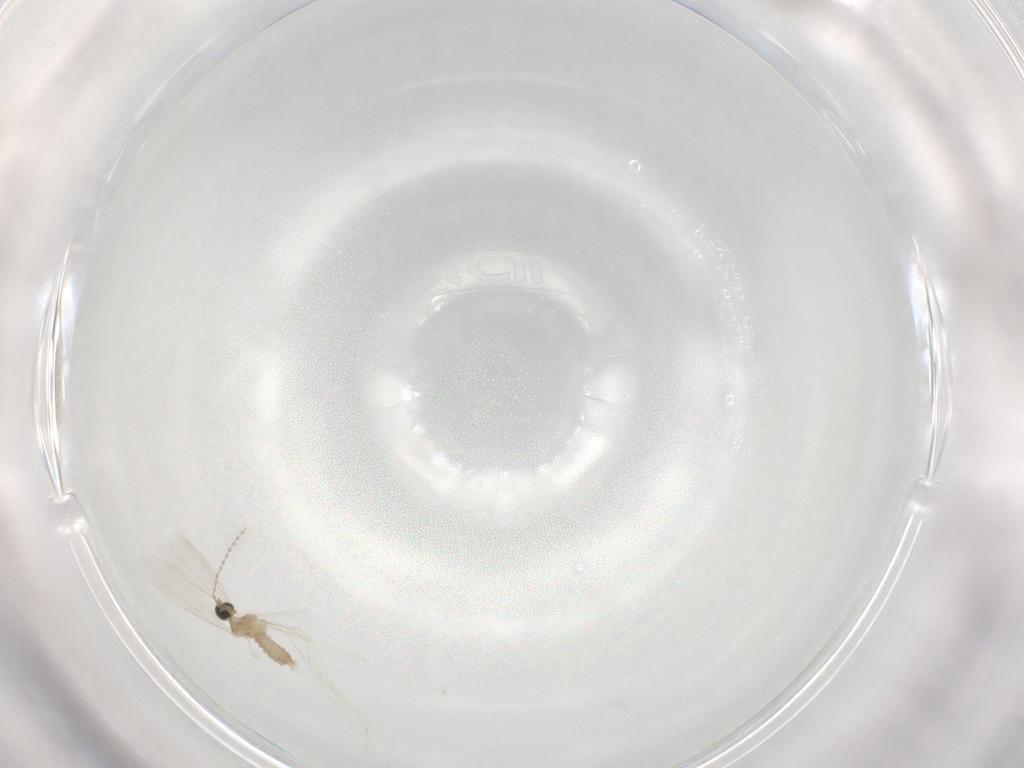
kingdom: Animalia
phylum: Arthropoda
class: Insecta
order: Diptera
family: Cecidomyiidae
